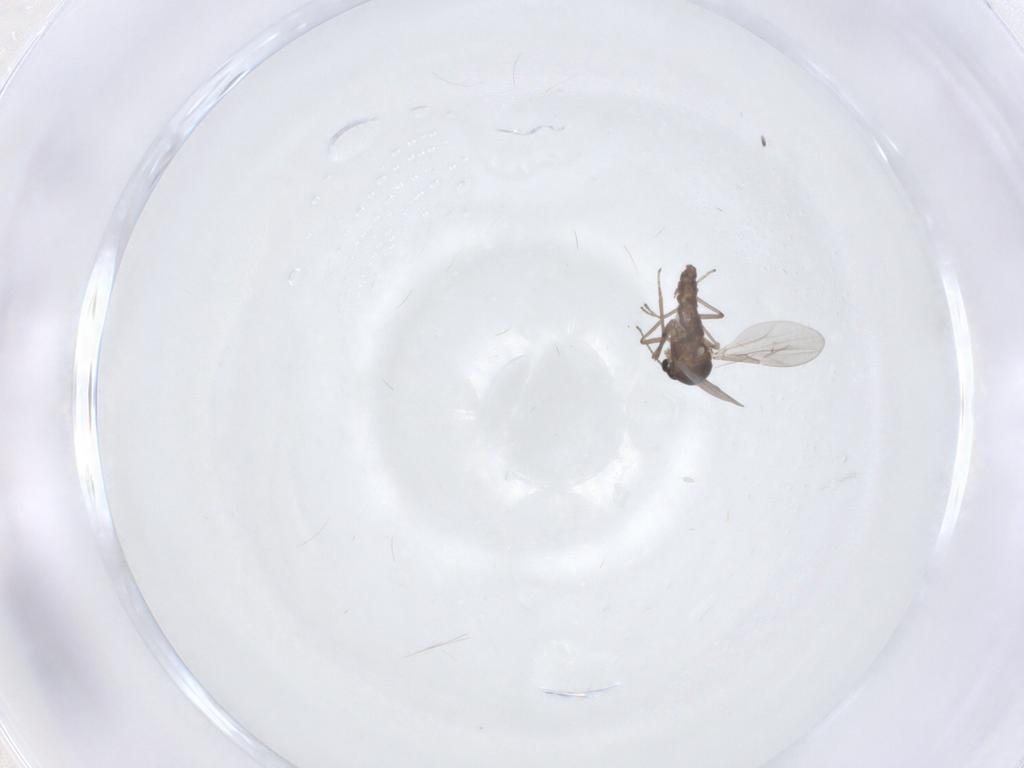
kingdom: Animalia
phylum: Arthropoda
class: Insecta
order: Diptera
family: Ceratopogonidae
